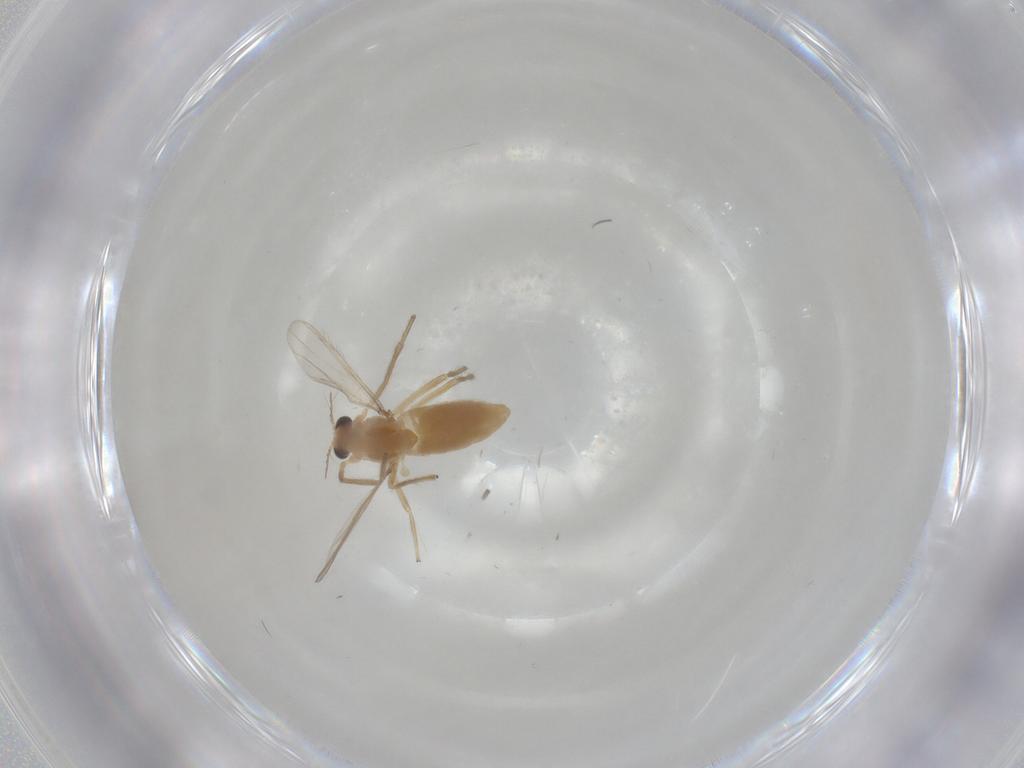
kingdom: Animalia
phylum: Arthropoda
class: Insecta
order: Diptera
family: Chironomidae
